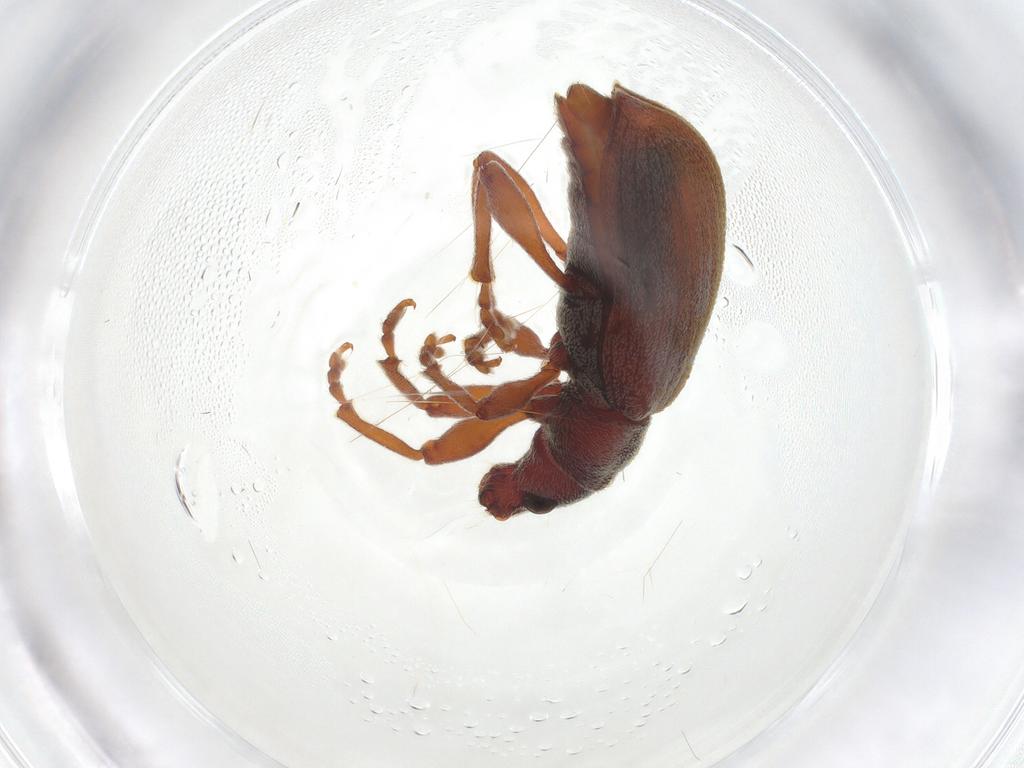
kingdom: Animalia
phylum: Arthropoda
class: Insecta
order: Coleoptera
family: Curculionidae
